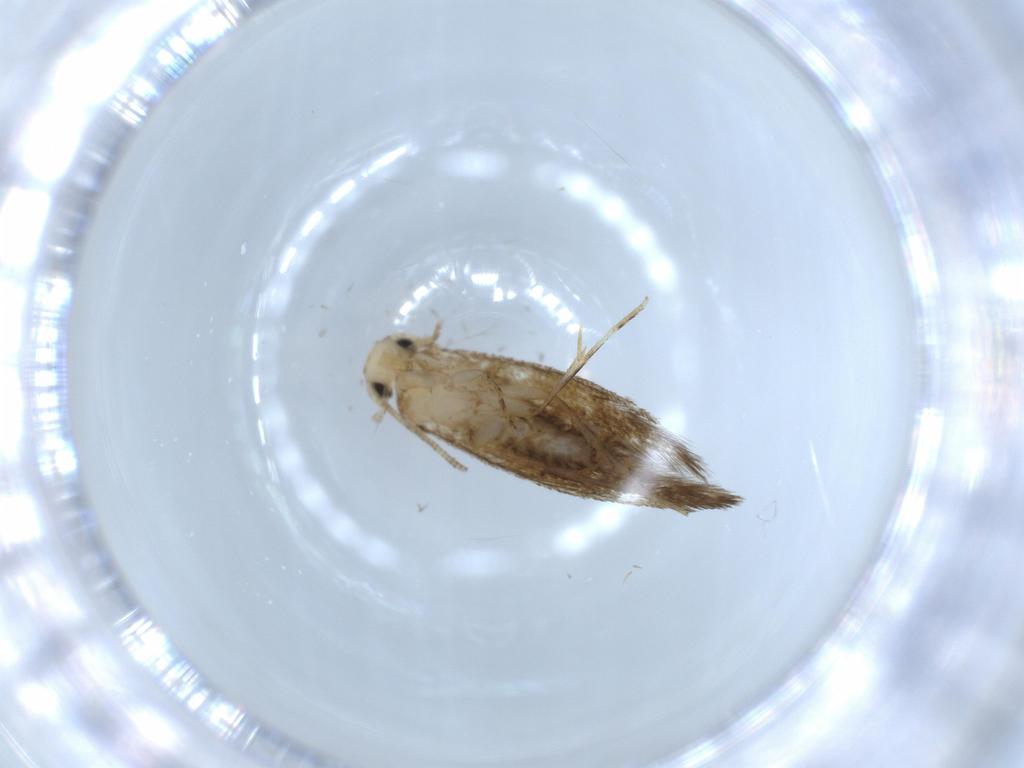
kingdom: Animalia
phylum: Arthropoda
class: Insecta
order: Lepidoptera
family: Tineidae
